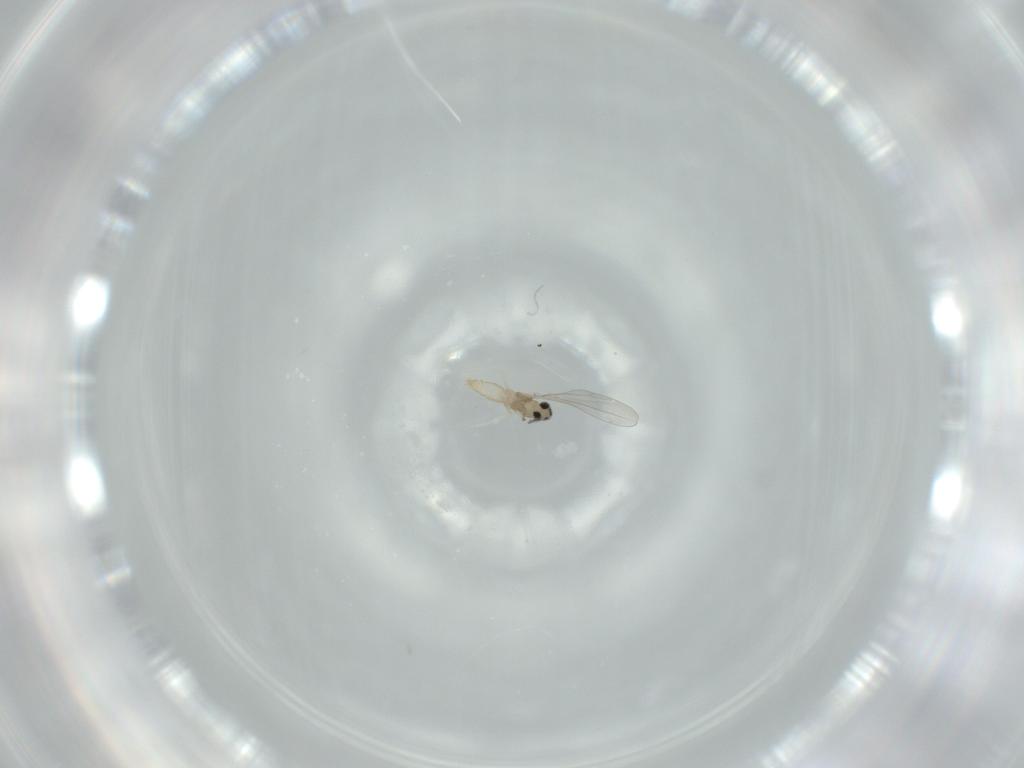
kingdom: Animalia
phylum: Arthropoda
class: Insecta
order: Diptera
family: Cecidomyiidae
